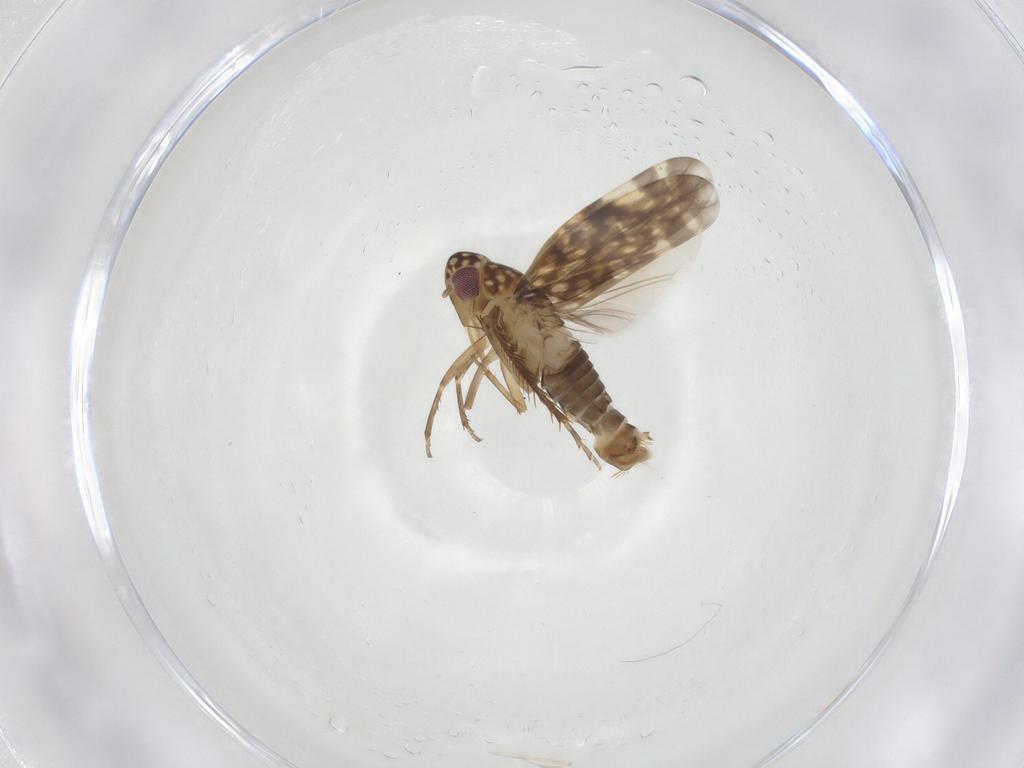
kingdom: Animalia
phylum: Arthropoda
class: Insecta
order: Hemiptera
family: Cicadellidae
